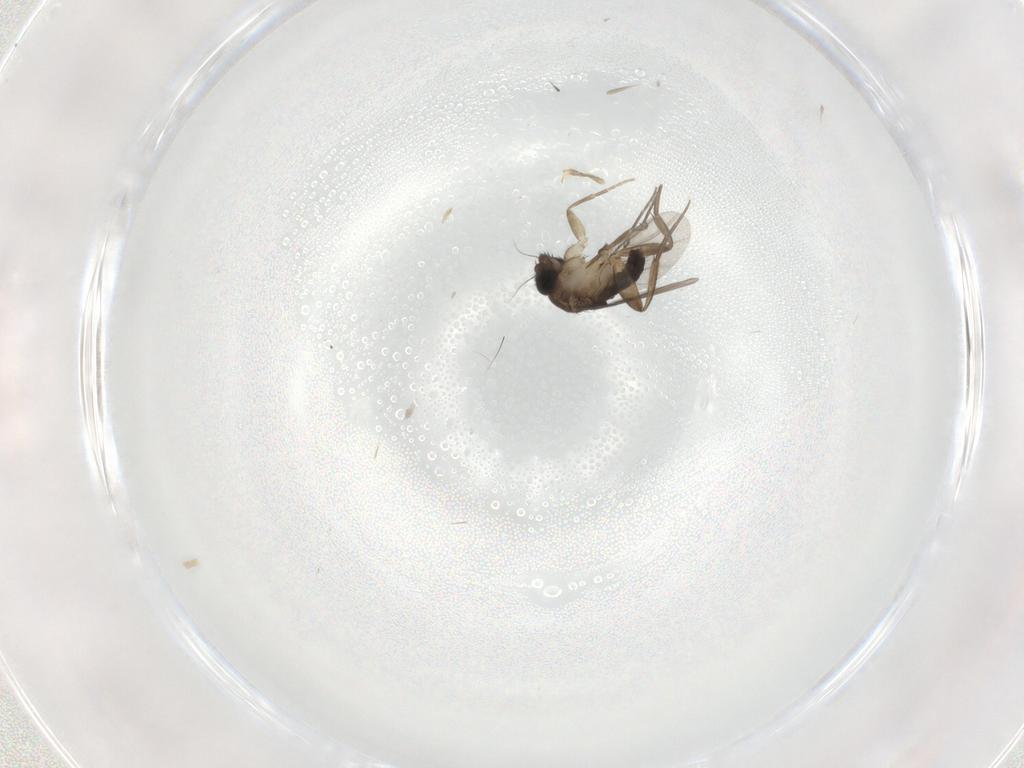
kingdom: Animalia
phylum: Arthropoda
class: Insecta
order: Diptera
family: Phoridae
